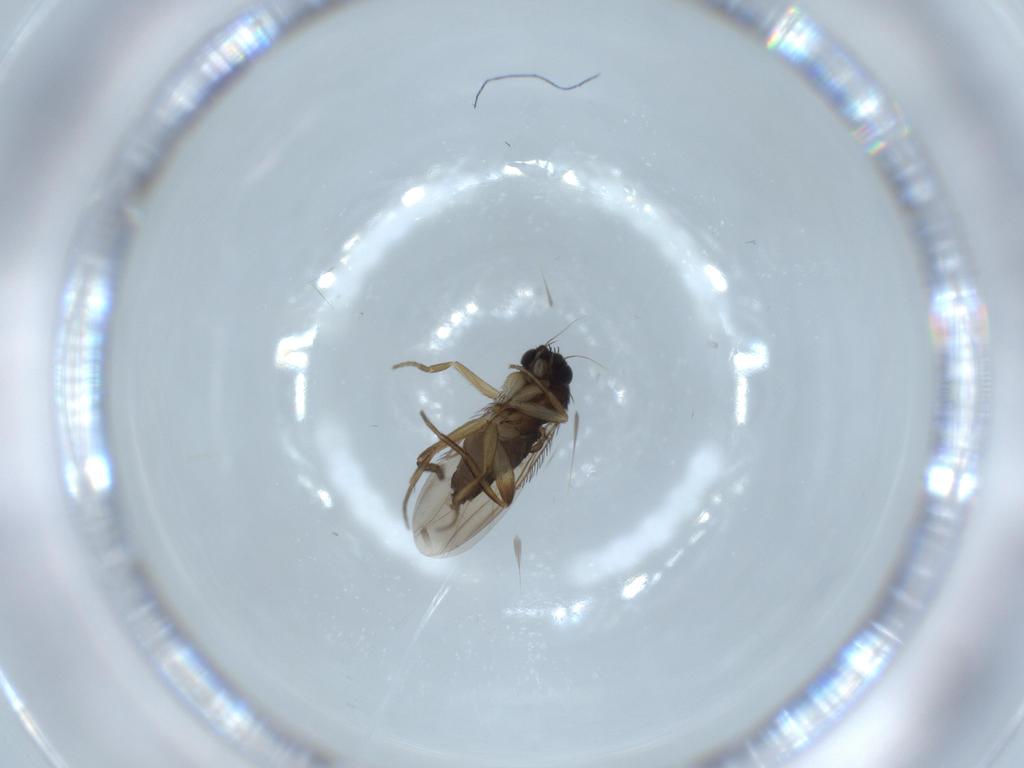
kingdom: Animalia
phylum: Arthropoda
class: Insecta
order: Diptera
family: Phoridae
